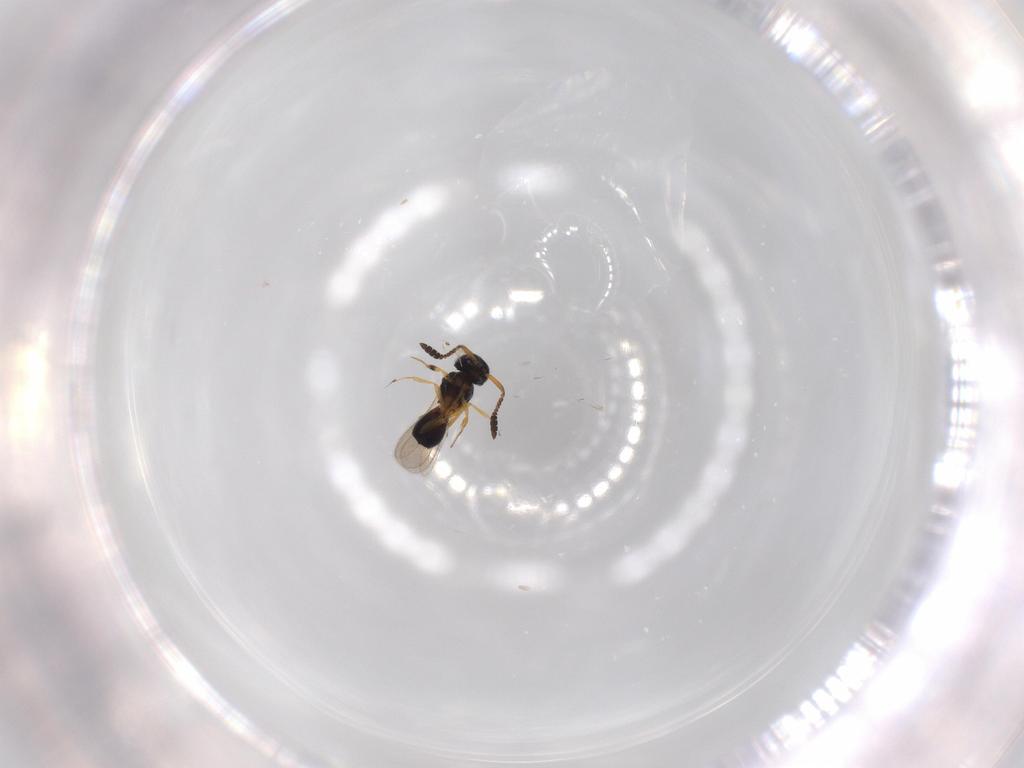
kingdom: Animalia
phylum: Arthropoda
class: Insecta
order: Hymenoptera
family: Scelionidae
